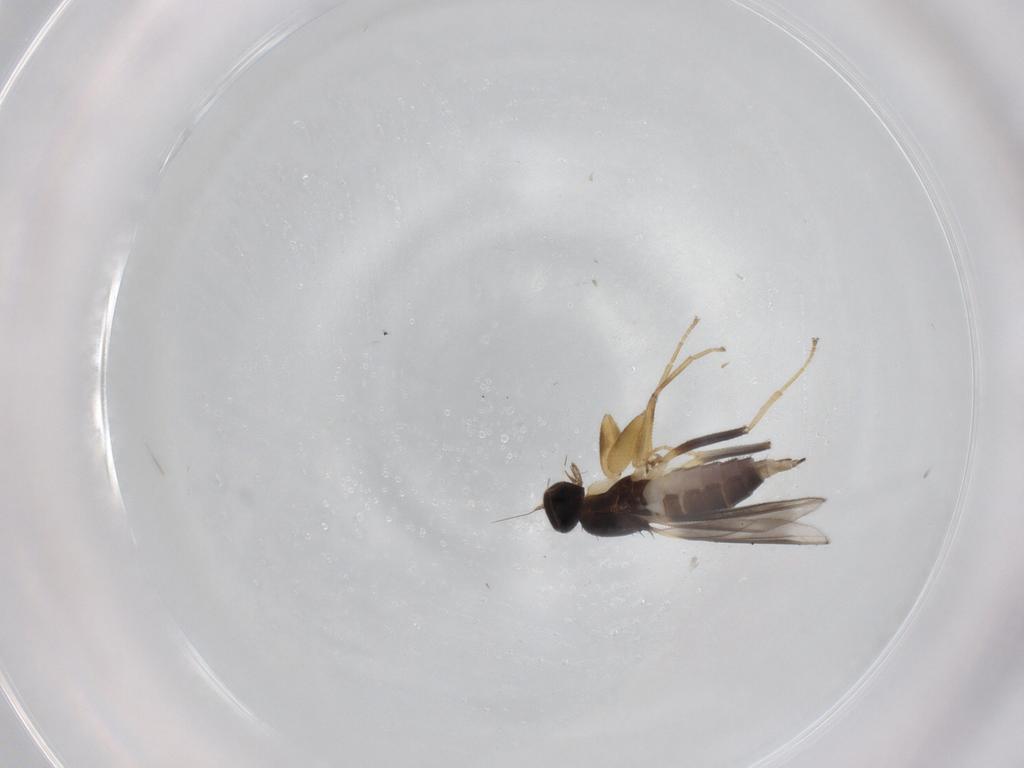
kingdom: Animalia
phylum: Arthropoda
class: Insecta
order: Diptera
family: Hybotidae
